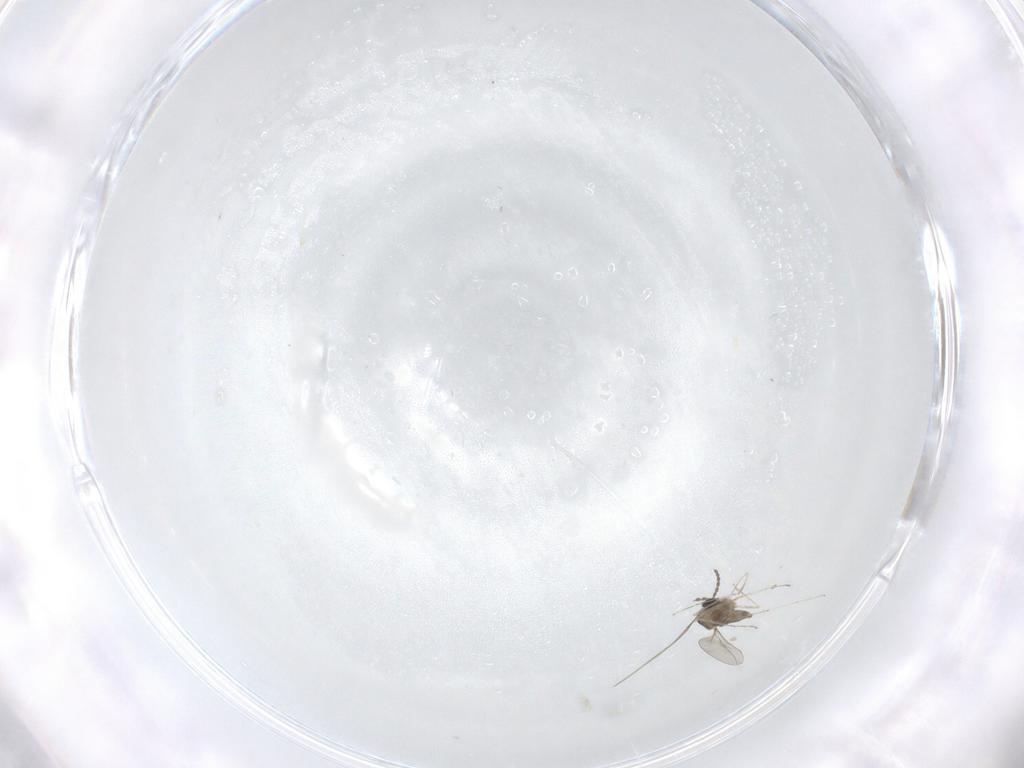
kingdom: Animalia
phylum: Arthropoda
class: Insecta
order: Diptera
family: Cecidomyiidae
